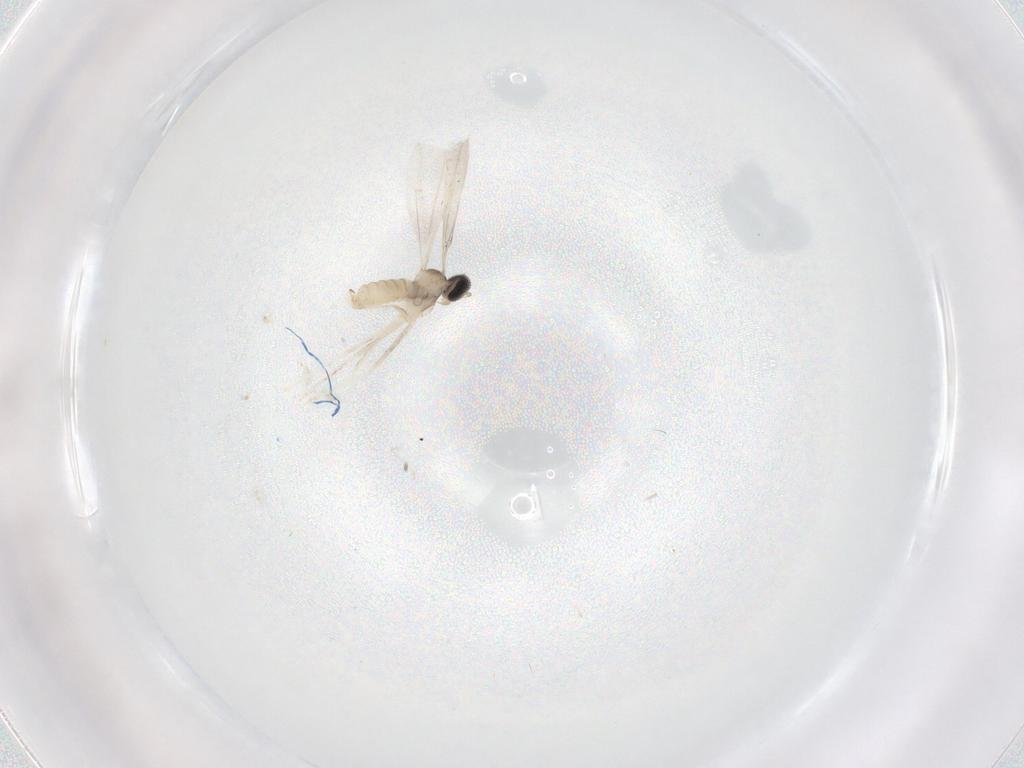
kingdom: Animalia
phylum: Arthropoda
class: Insecta
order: Diptera
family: Cecidomyiidae
